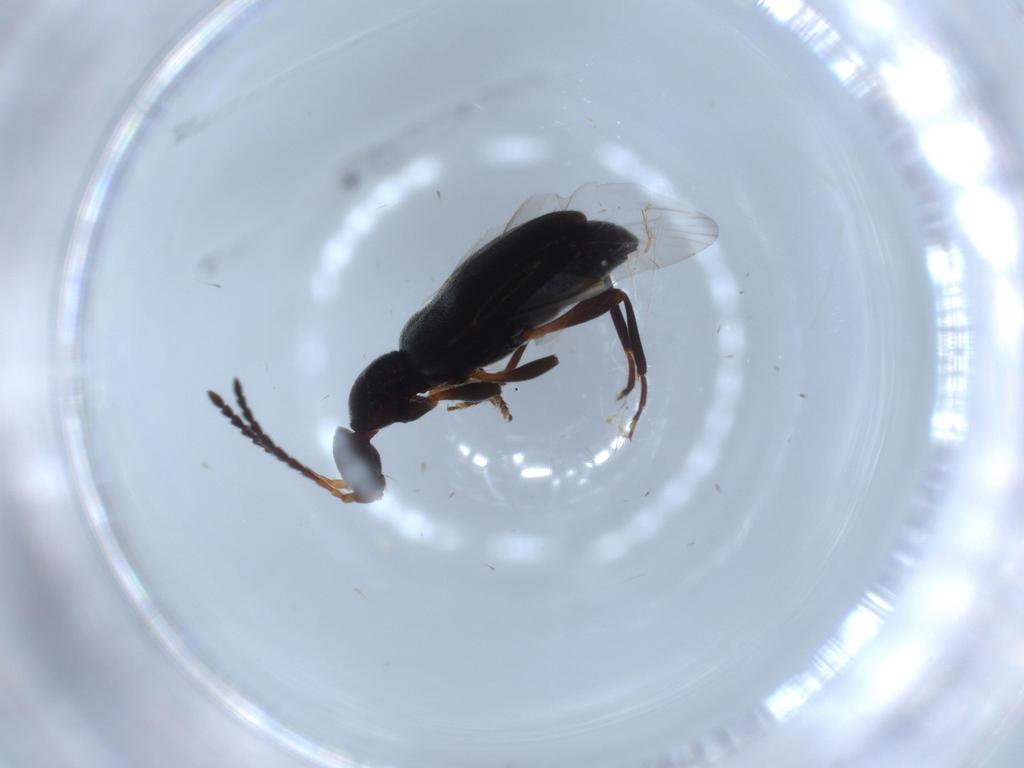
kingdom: Animalia
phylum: Arthropoda
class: Insecta
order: Coleoptera
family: Anthicidae
